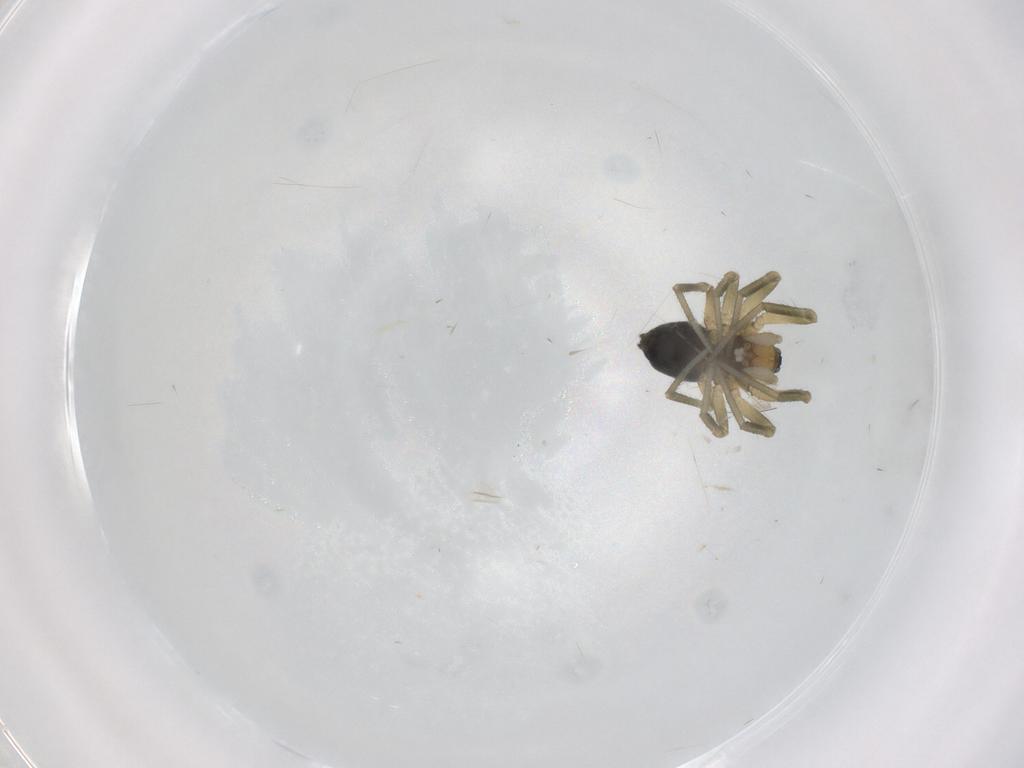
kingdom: Animalia
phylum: Arthropoda
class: Arachnida
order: Araneae
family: Linyphiidae
